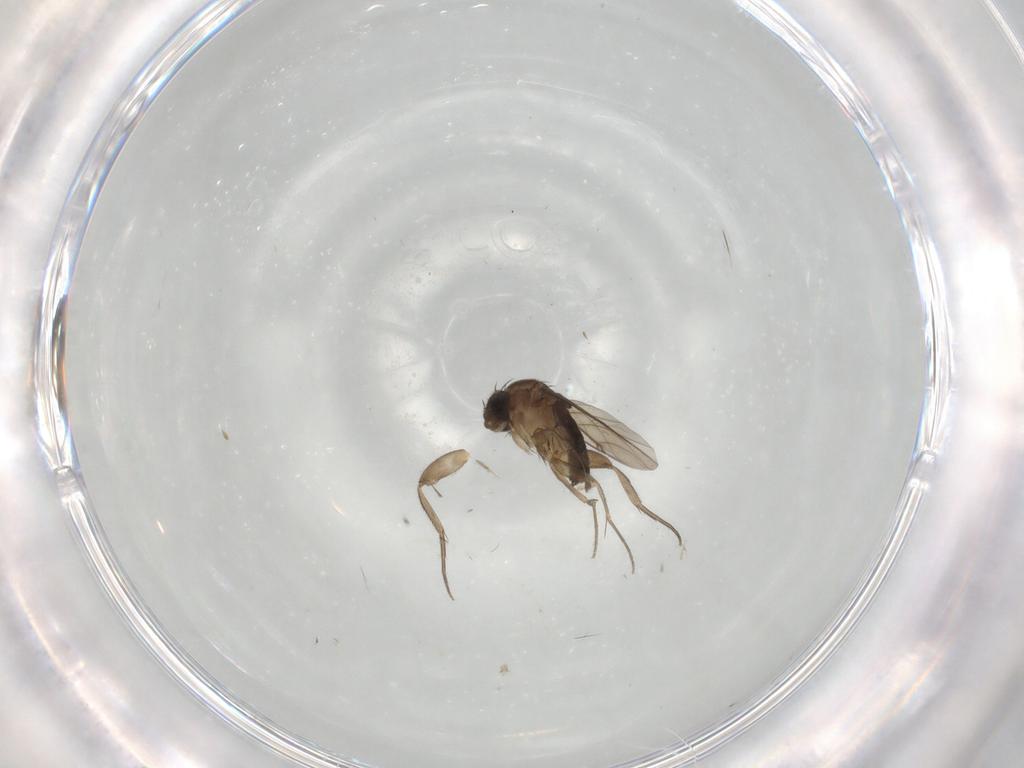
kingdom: Animalia
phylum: Arthropoda
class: Insecta
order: Diptera
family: Phoridae
